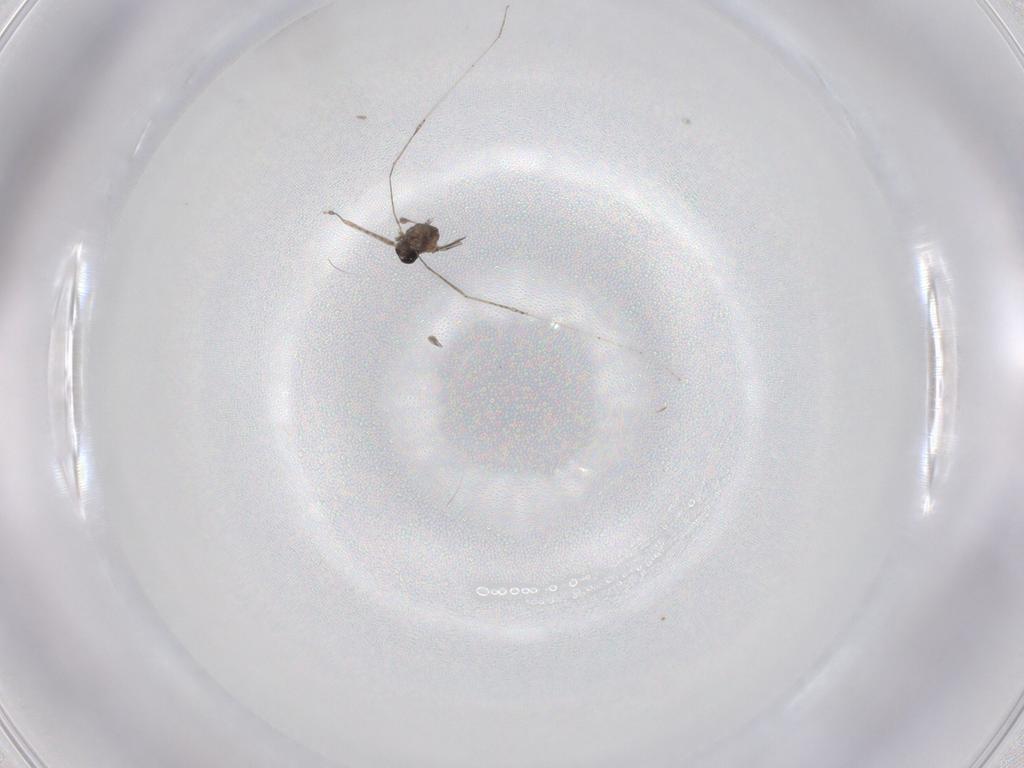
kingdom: Animalia
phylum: Arthropoda
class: Insecta
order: Diptera
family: Cecidomyiidae
